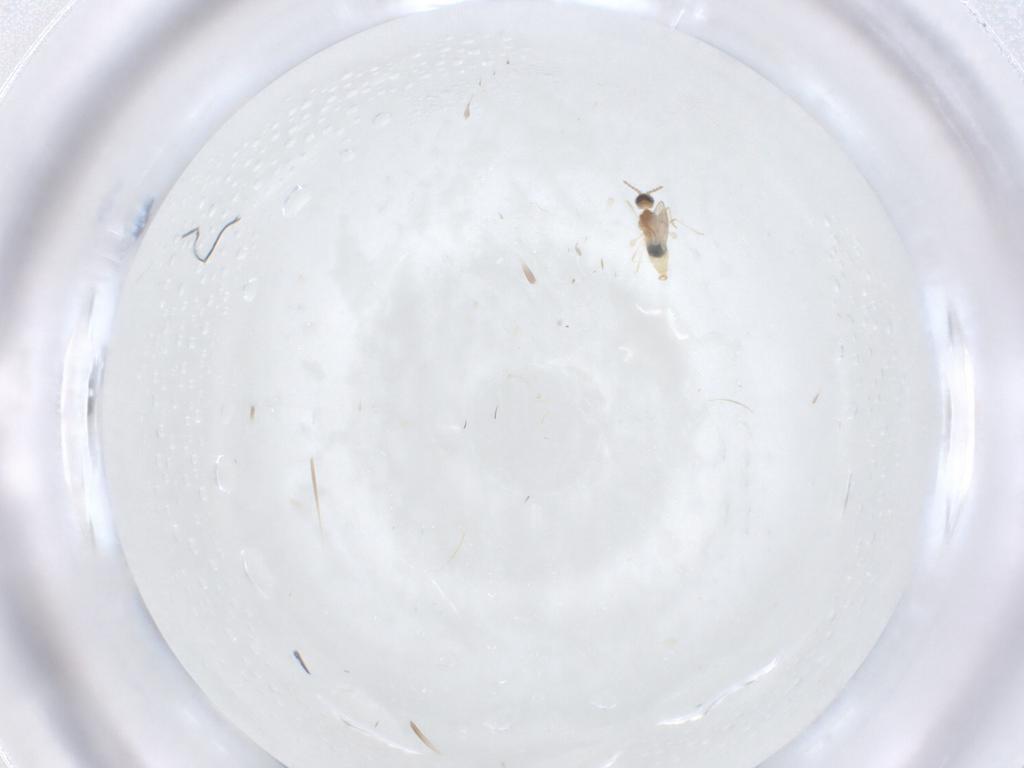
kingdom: Animalia
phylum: Arthropoda
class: Insecta
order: Diptera
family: Cecidomyiidae
